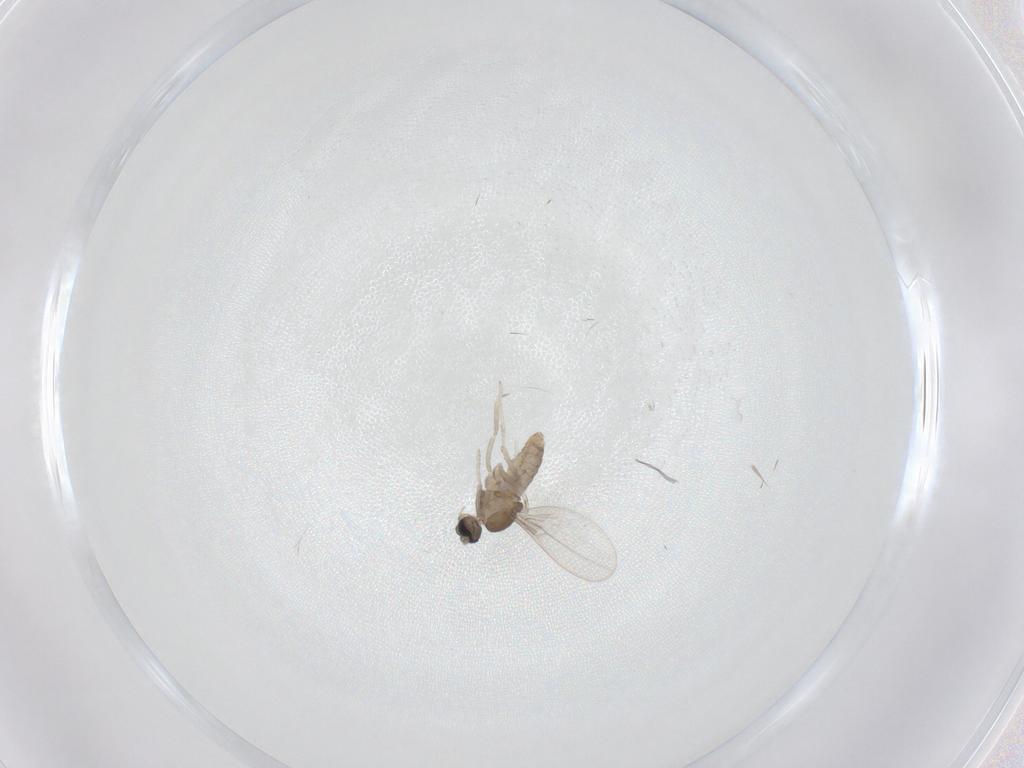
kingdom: Animalia
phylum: Arthropoda
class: Insecta
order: Diptera
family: Cecidomyiidae
